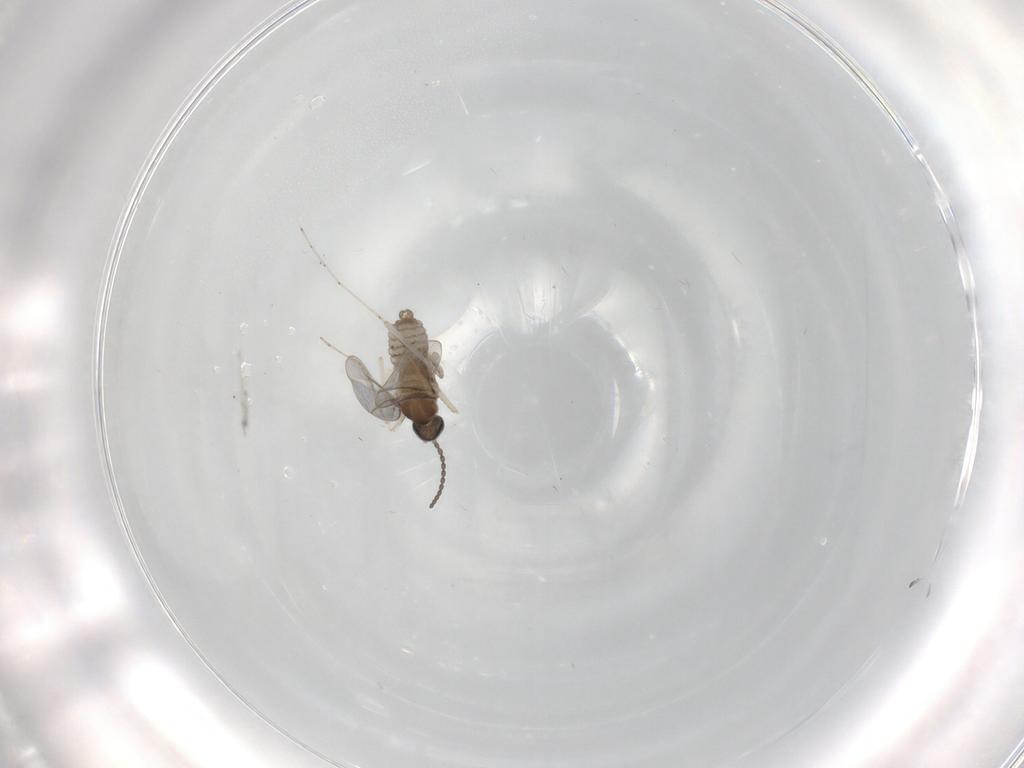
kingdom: Animalia
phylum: Arthropoda
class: Insecta
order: Diptera
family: Cecidomyiidae
